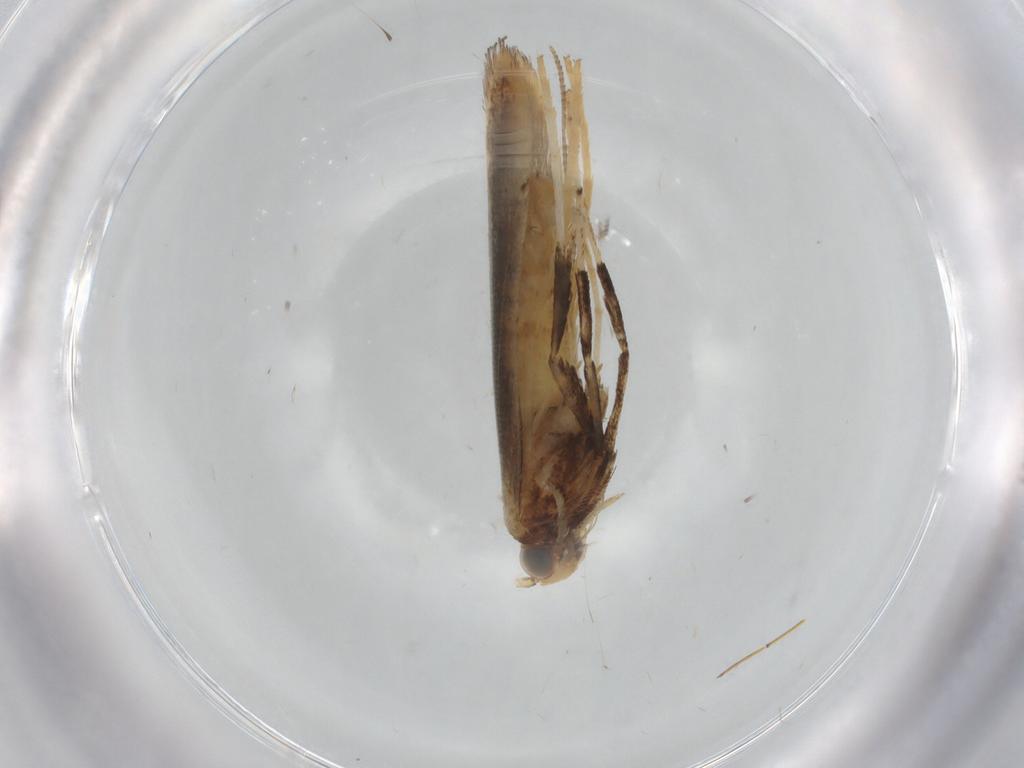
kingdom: Animalia
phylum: Arthropoda
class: Insecta
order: Lepidoptera
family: Gracillariidae
